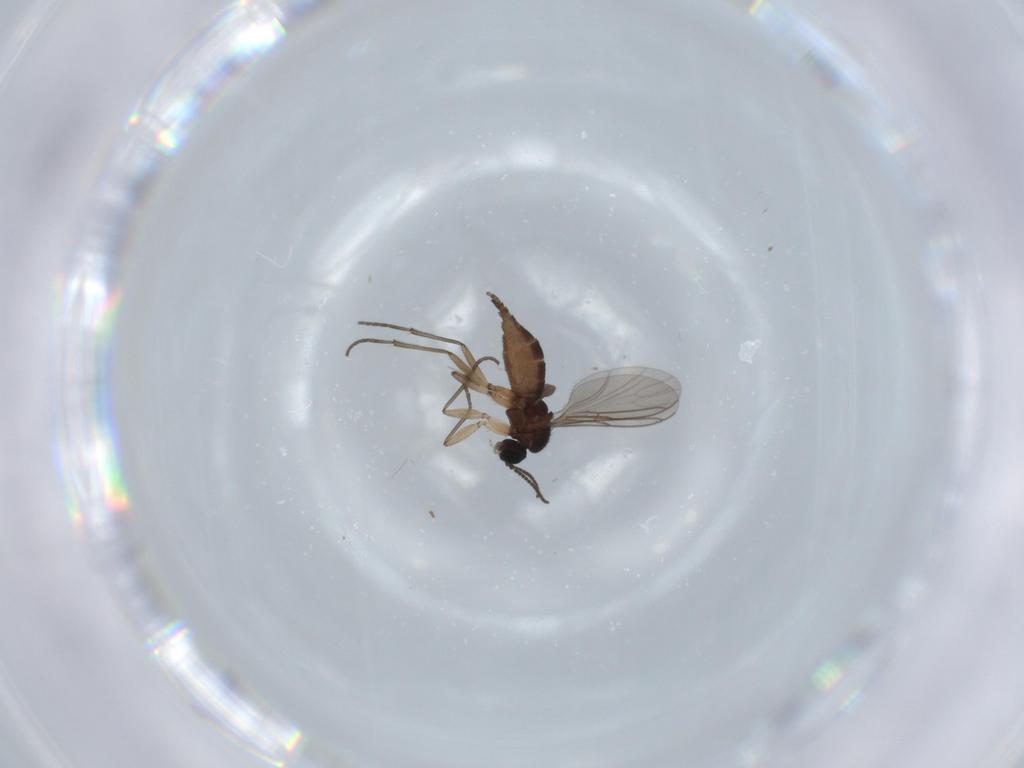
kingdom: Animalia
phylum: Arthropoda
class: Insecta
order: Diptera
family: Sciaridae
